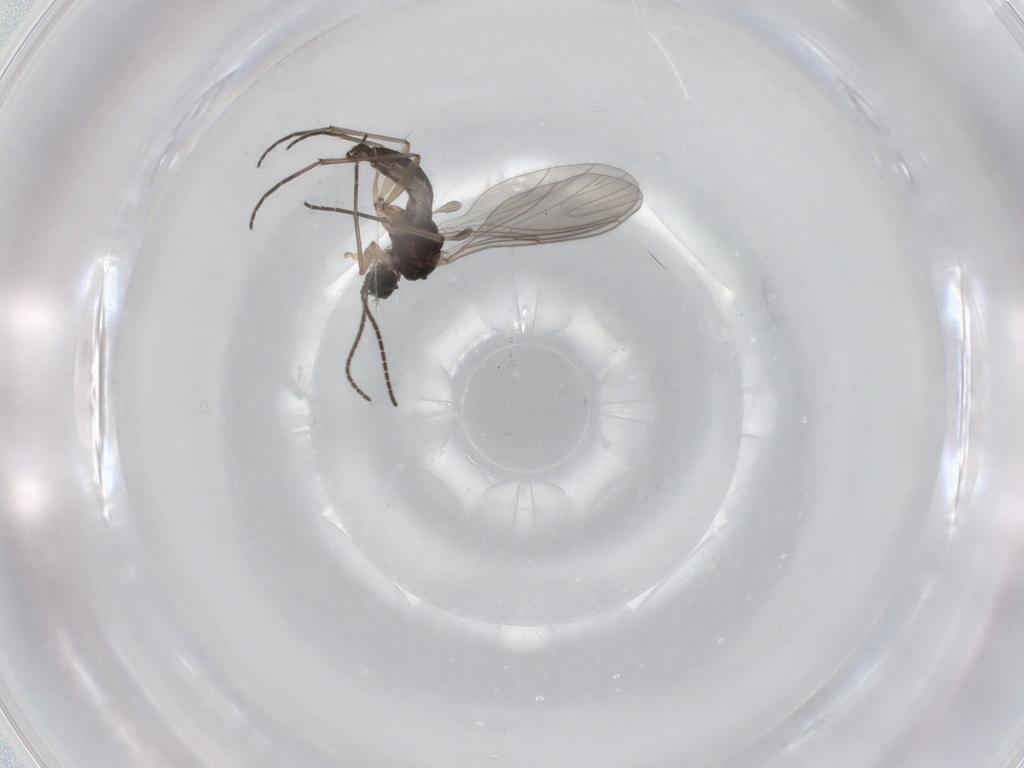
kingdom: Animalia
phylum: Arthropoda
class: Insecta
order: Diptera
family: Sciaridae
